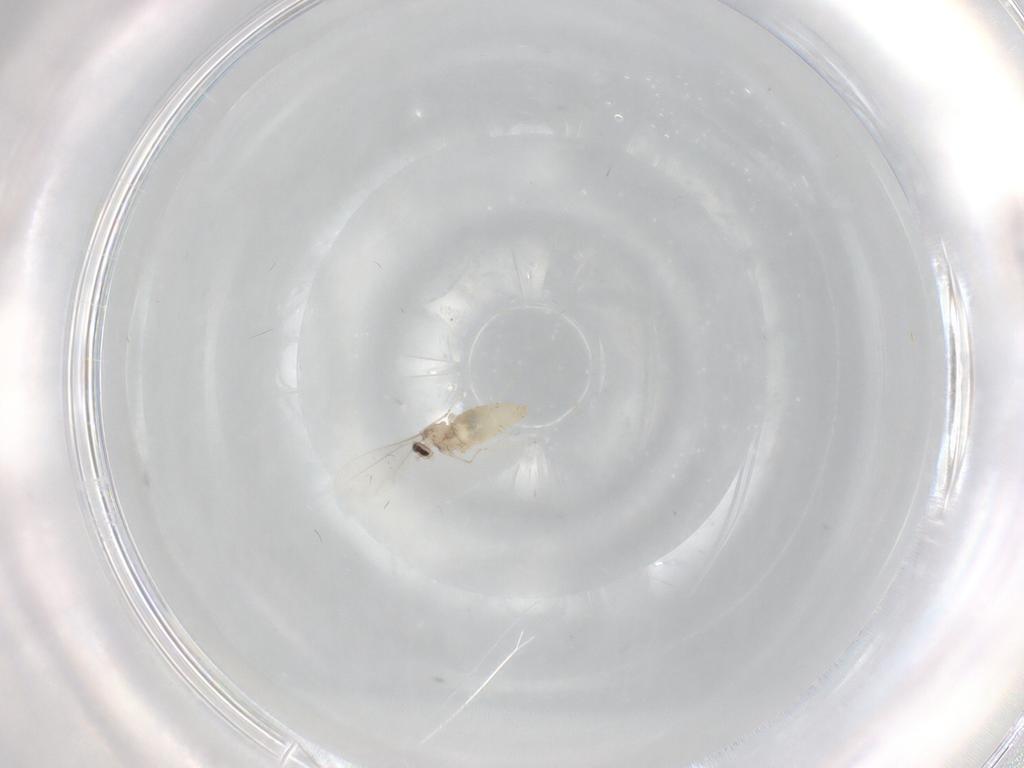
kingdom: Animalia
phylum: Arthropoda
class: Insecta
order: Diptera
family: Cecidomyiidae
